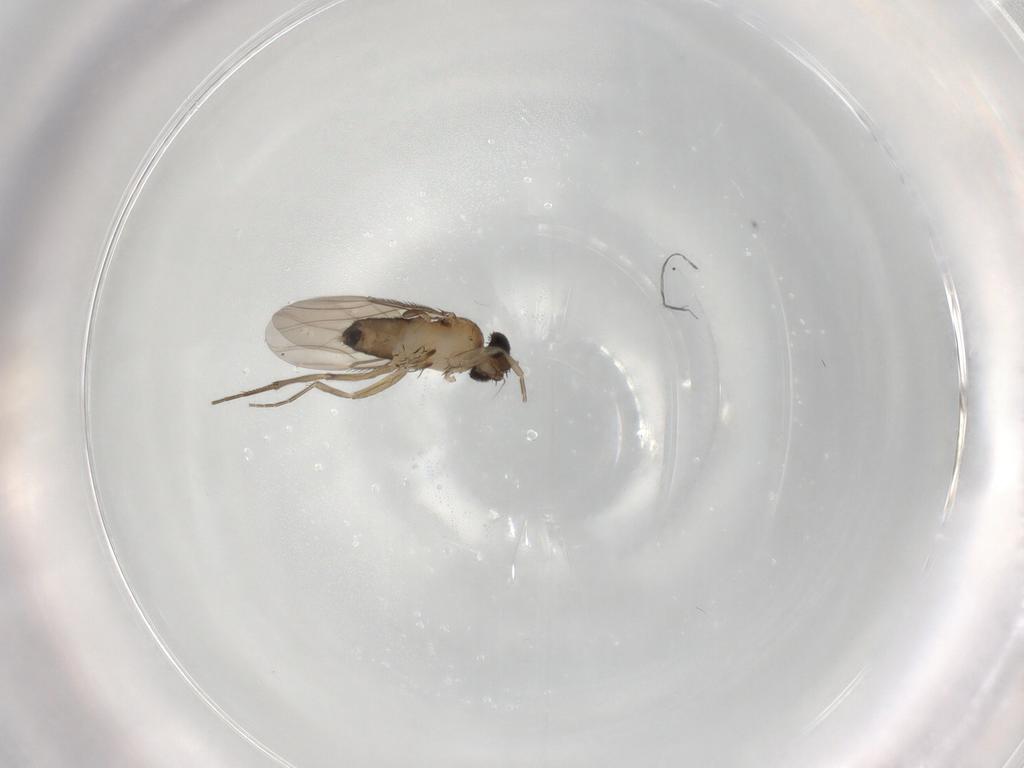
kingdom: Animalia
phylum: Arthropoda
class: Insecta
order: Diptera
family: Phoridae
